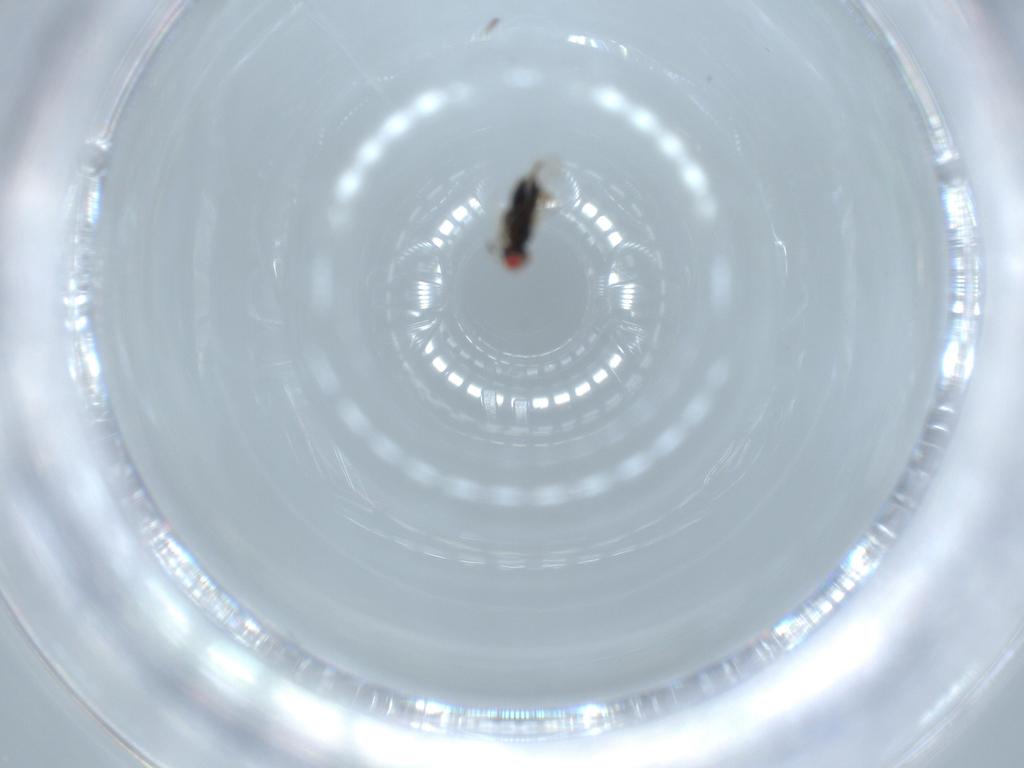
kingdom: Animalia
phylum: Arthropoda
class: Insecta
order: Hymenoptera
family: Azotidae
